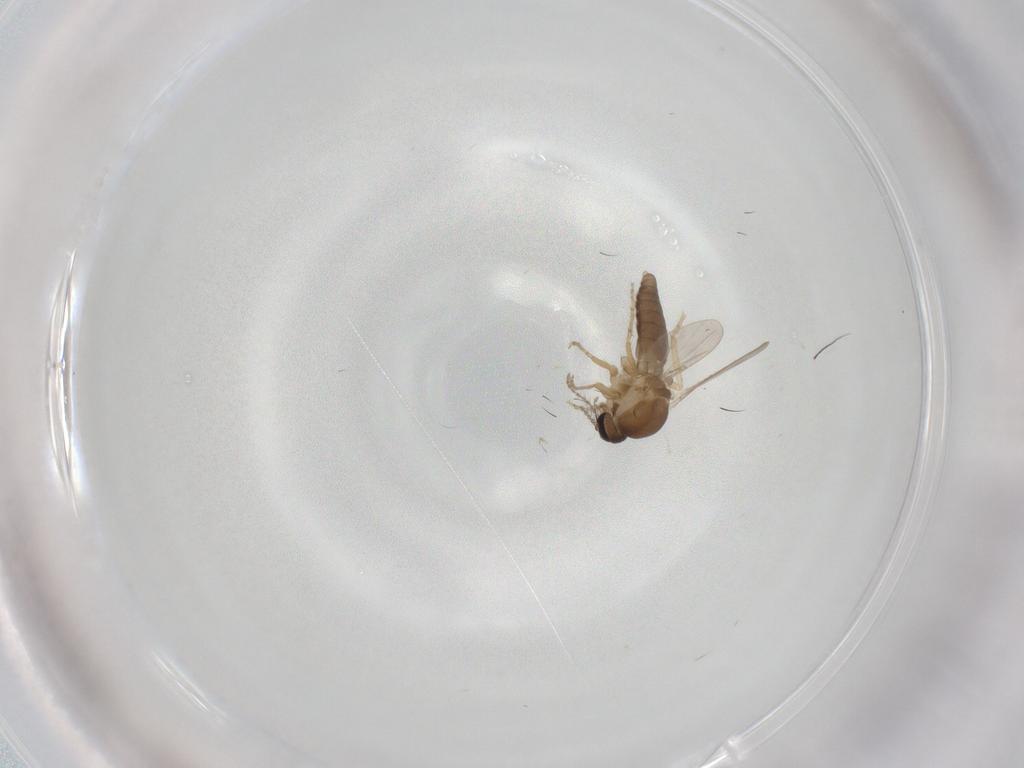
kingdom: Animalia
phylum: Arthropoda
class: Insecta
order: Diptera
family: Ceratopogonidae
